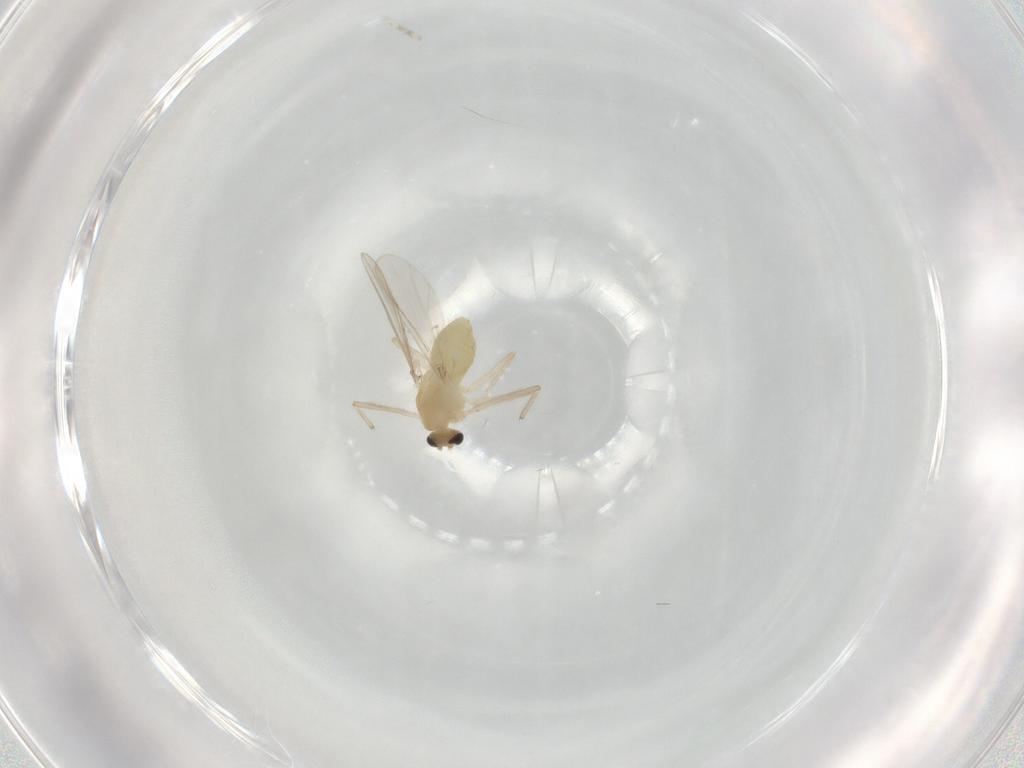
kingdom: Animalia
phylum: Arthropoda
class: Insecta
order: Diptera
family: Chironomidae
